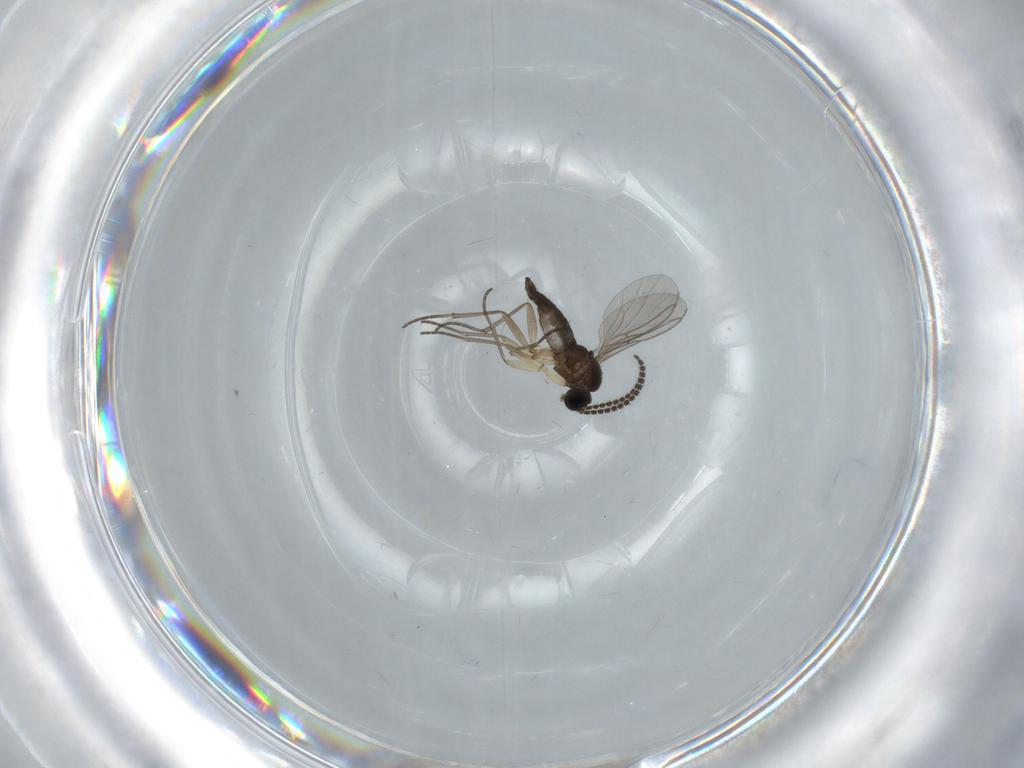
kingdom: Animalia
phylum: Arthropoda
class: Insecta
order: Diptera
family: Sciaridae
